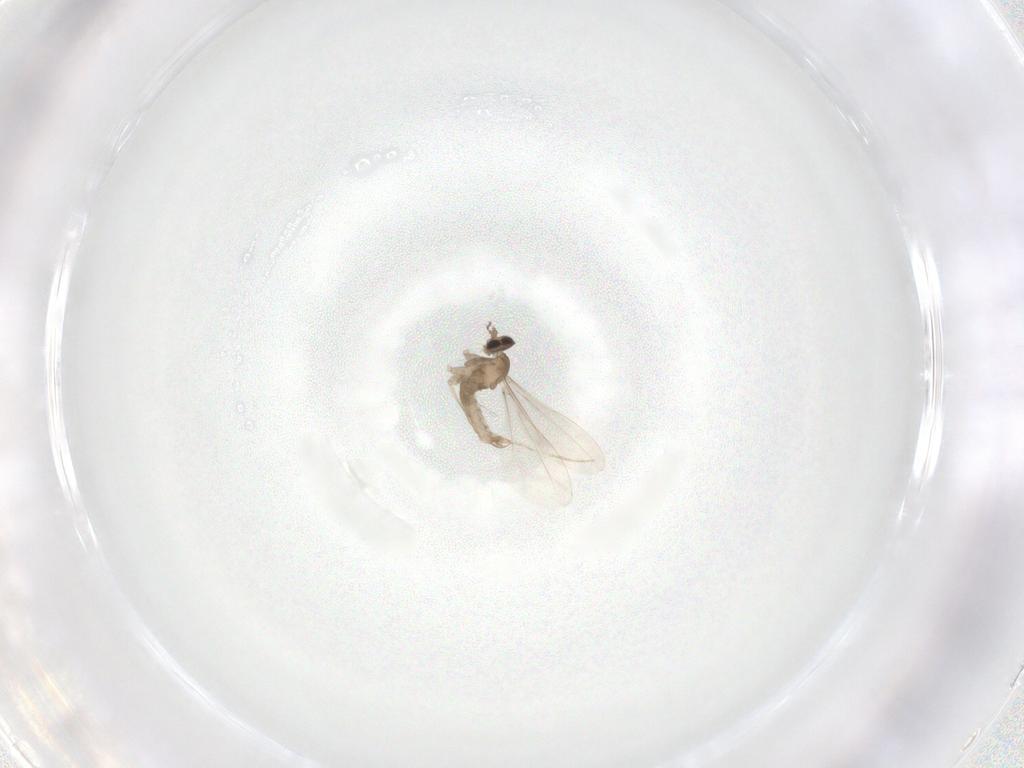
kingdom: Animalia
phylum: Arthropoda
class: Insecta
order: Diptera
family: Cecidomyiidae
